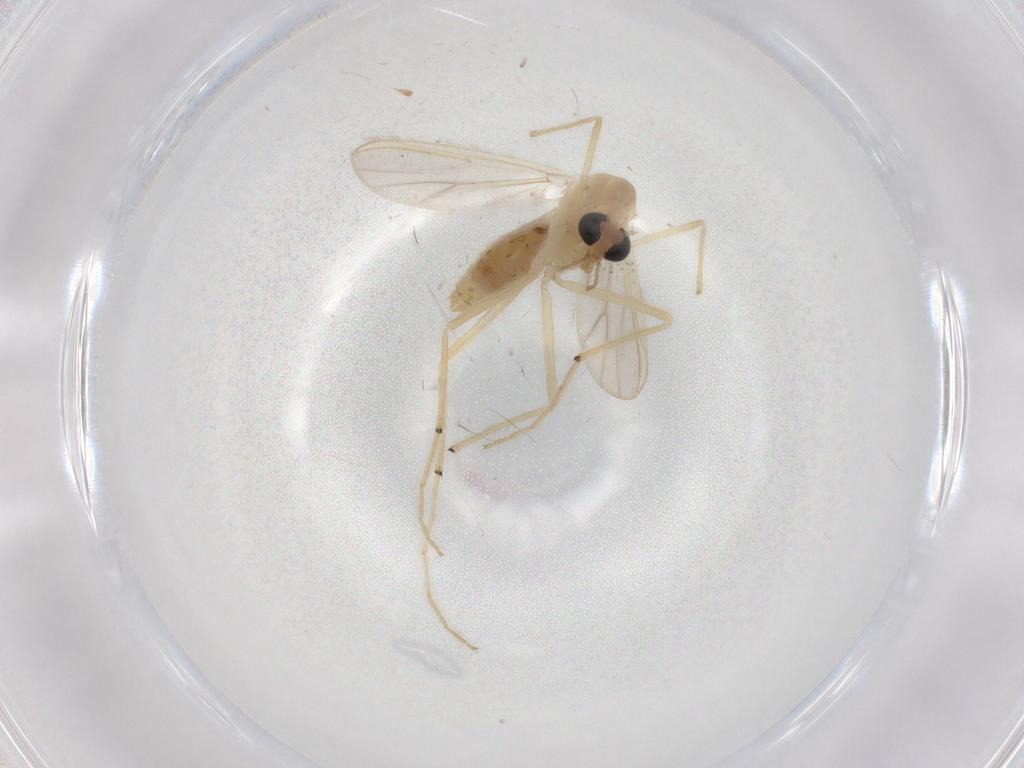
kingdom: Animalia
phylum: Arthropoda
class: Insecta
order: Diptera
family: Chironomidae
